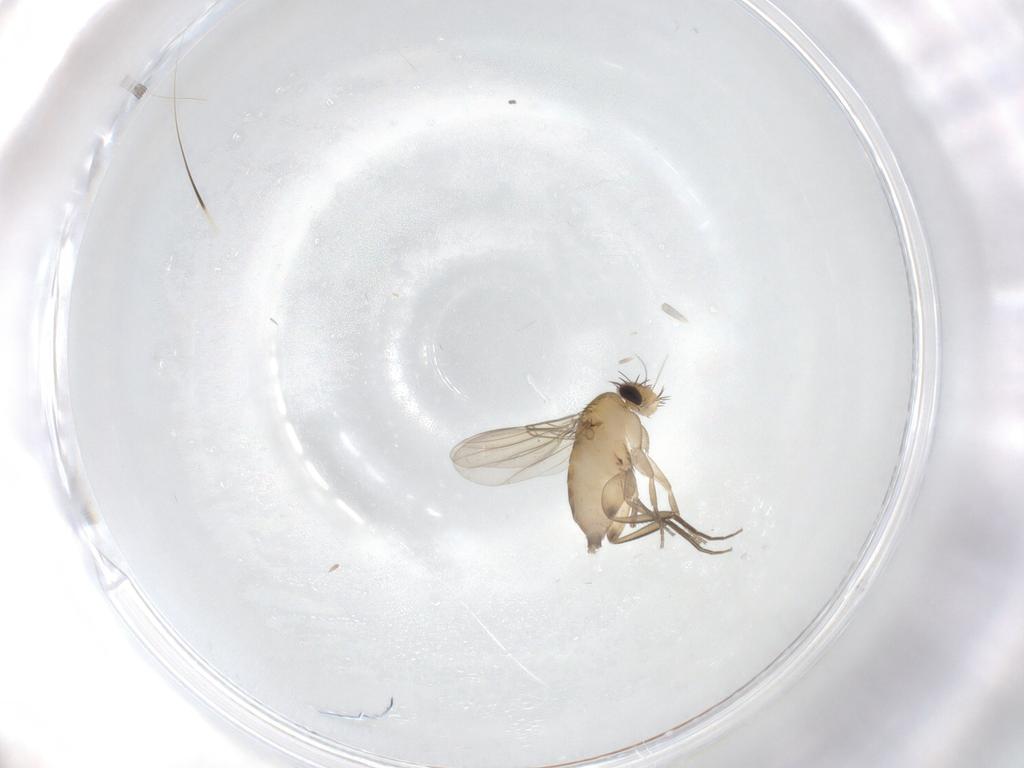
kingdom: Animalia
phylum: Arthropoda
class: Insecta
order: Diptera
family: Phoridae
